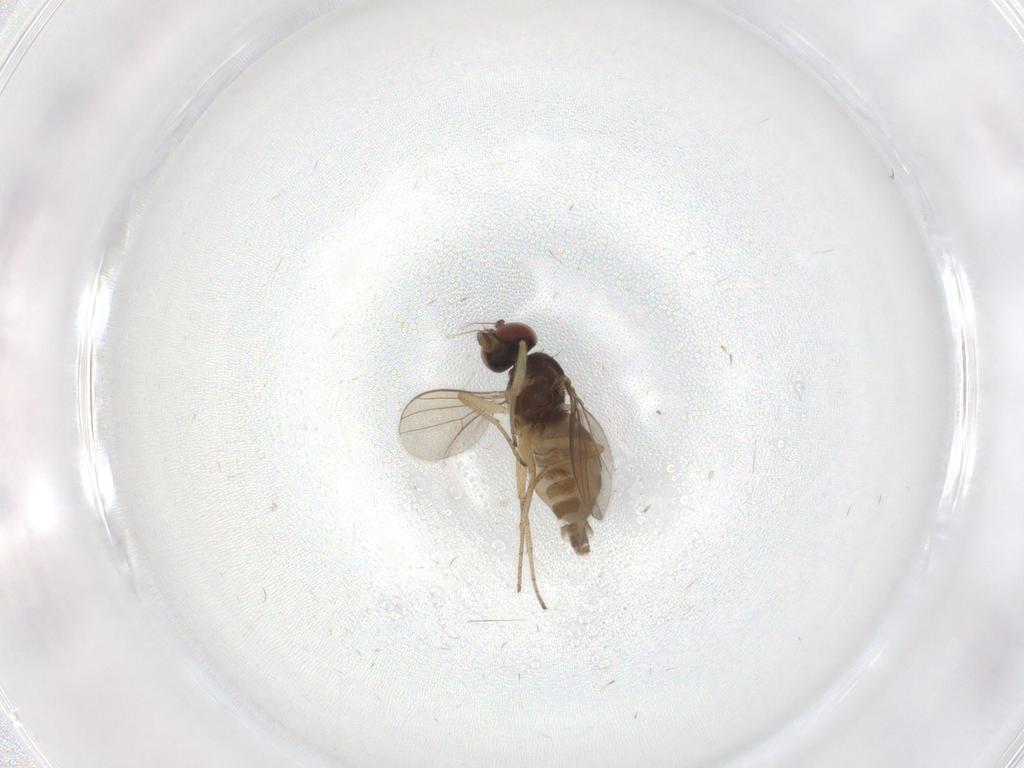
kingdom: Animalia
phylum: Arthropoda
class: Insecta
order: Diptera
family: Dolichopodidae
